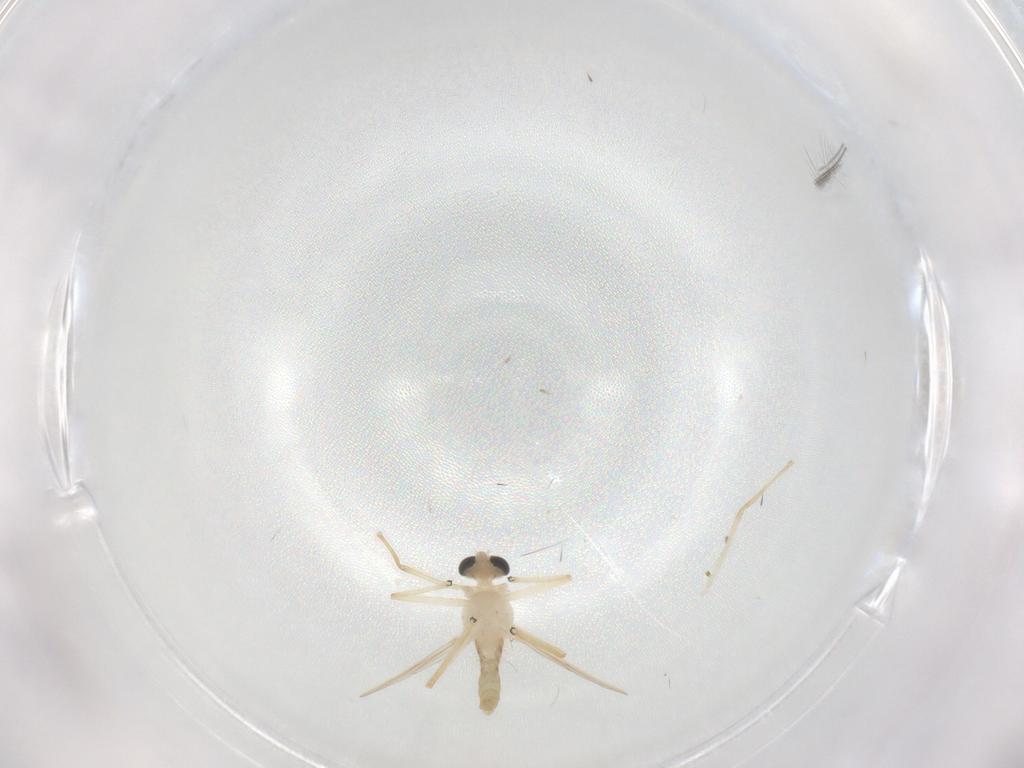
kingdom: Animalia
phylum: Arthropoda
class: Insecta
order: Diptera
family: Chironomidae
